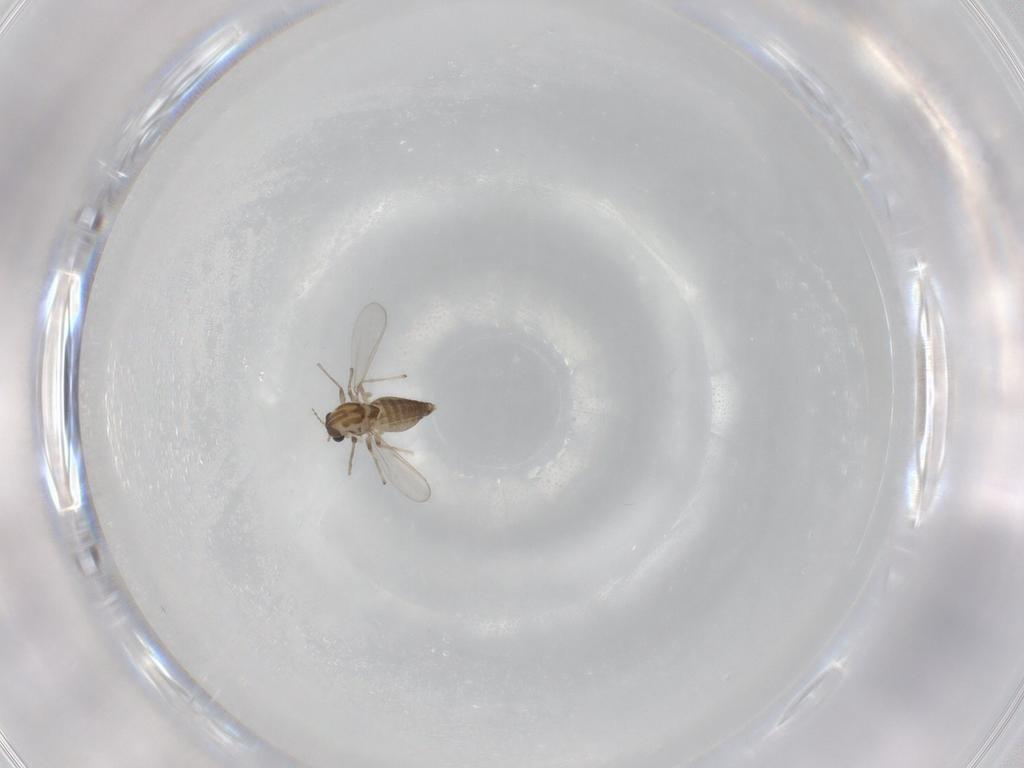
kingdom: Animalia
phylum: Arthropoda
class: Insecta
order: Diptera
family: Chironomidae
